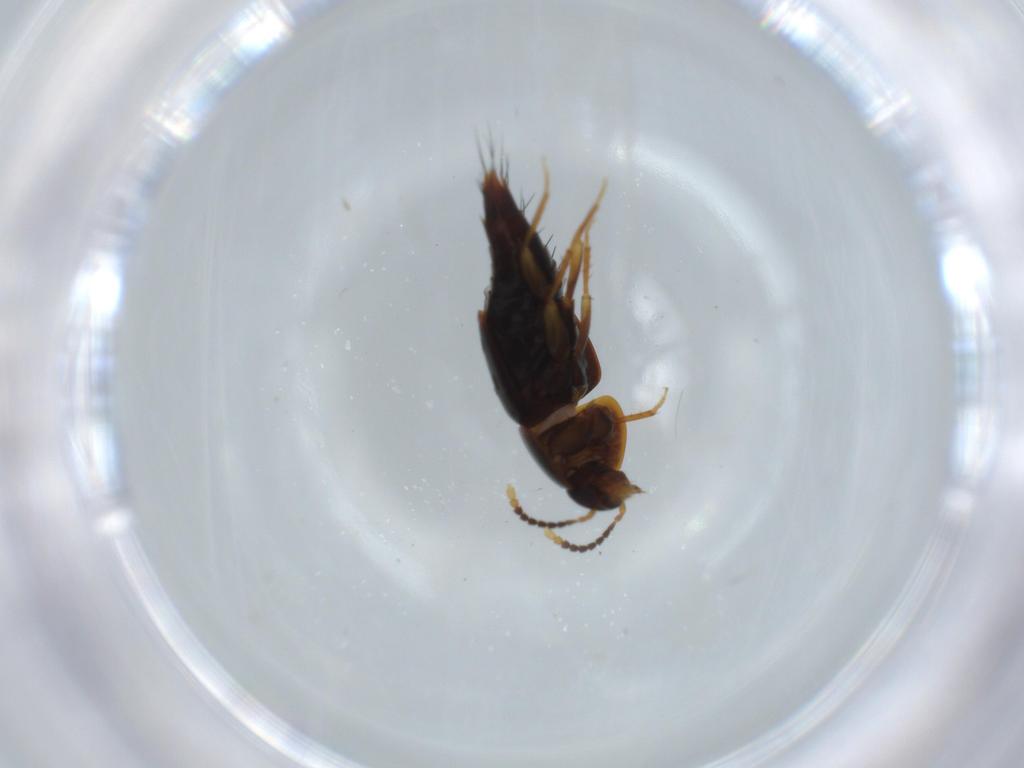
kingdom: Animalia
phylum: Arthropoda
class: Insecta
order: Coleoptera
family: Staphylinidae
